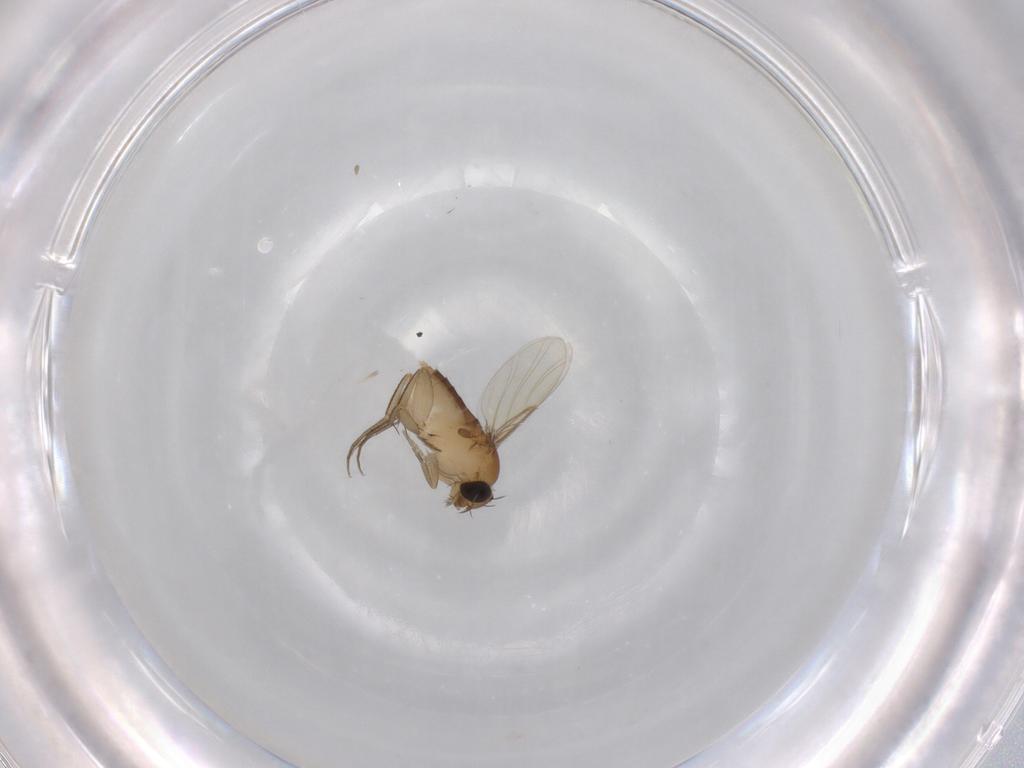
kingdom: Animalia
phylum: Arthropoda
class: Insecta
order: Diptera
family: Phoridae
